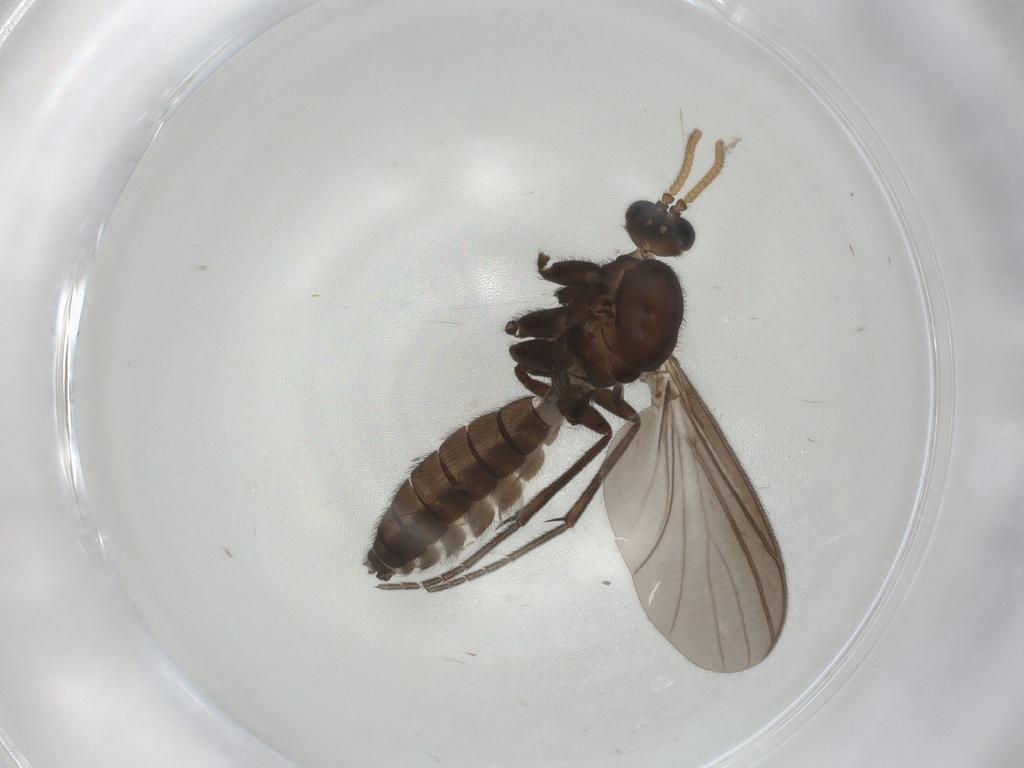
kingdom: Animalia
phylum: Arthropoda
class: Insecta
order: Diptera
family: Mycetophilidae
